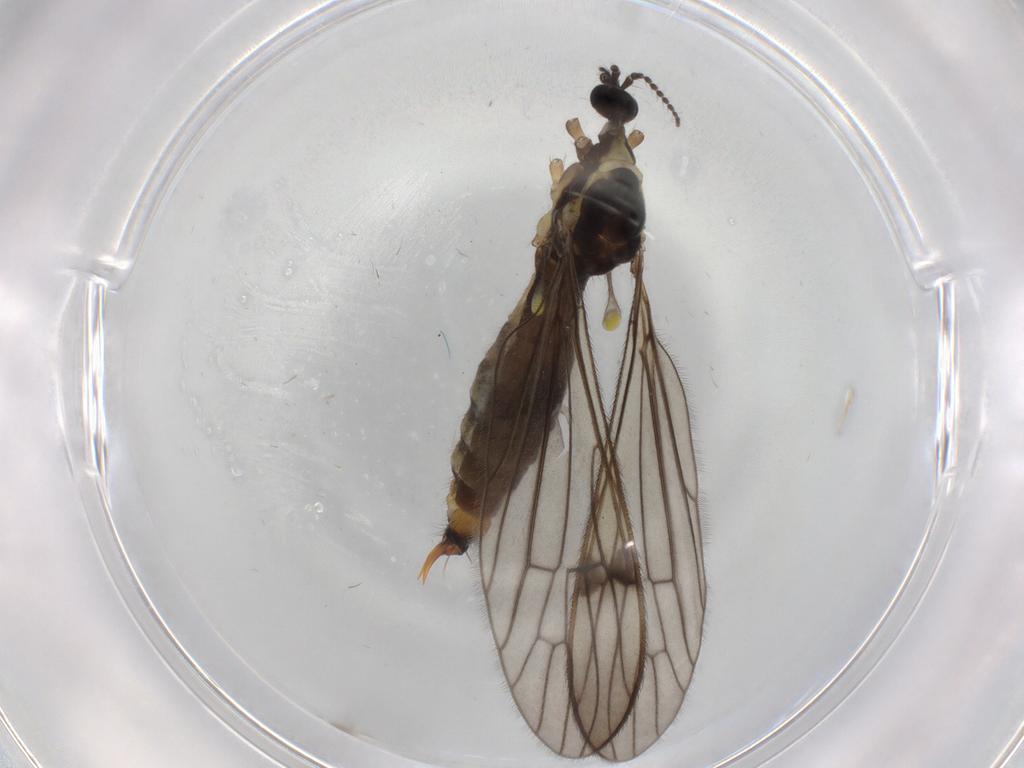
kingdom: Animalia
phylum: Arthropoda
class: Insecta
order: Diptera
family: Limoniidae
